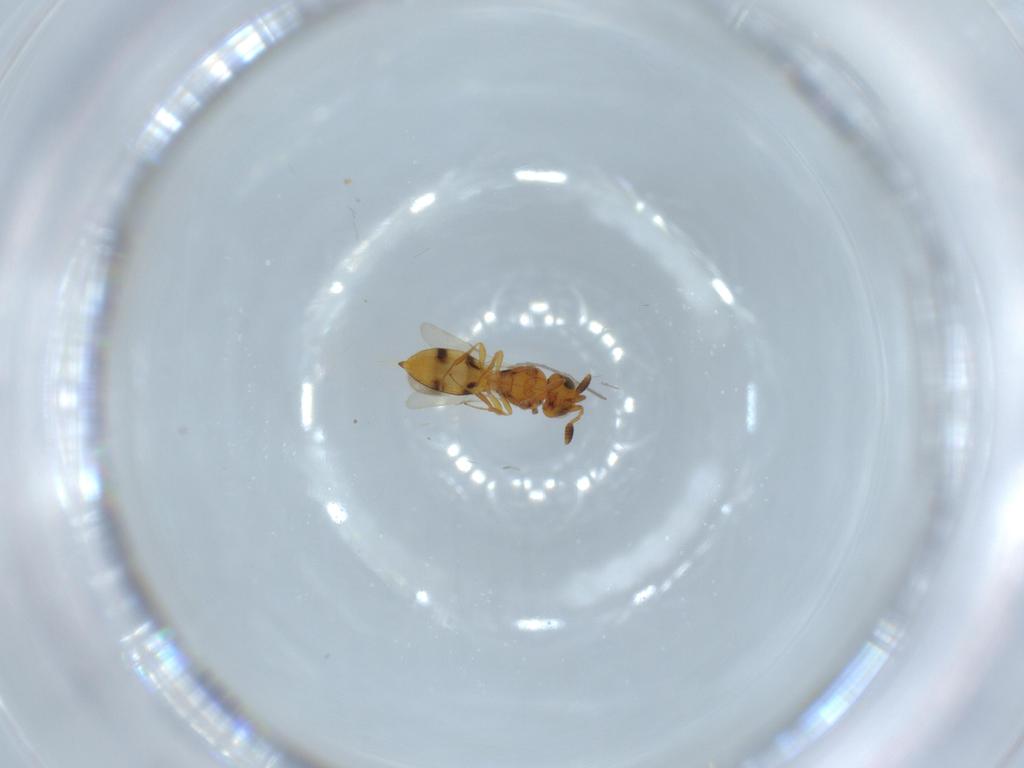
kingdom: Animalia
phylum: Arthropoda
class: Insecta
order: Hymenoptera
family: Scelionidae
